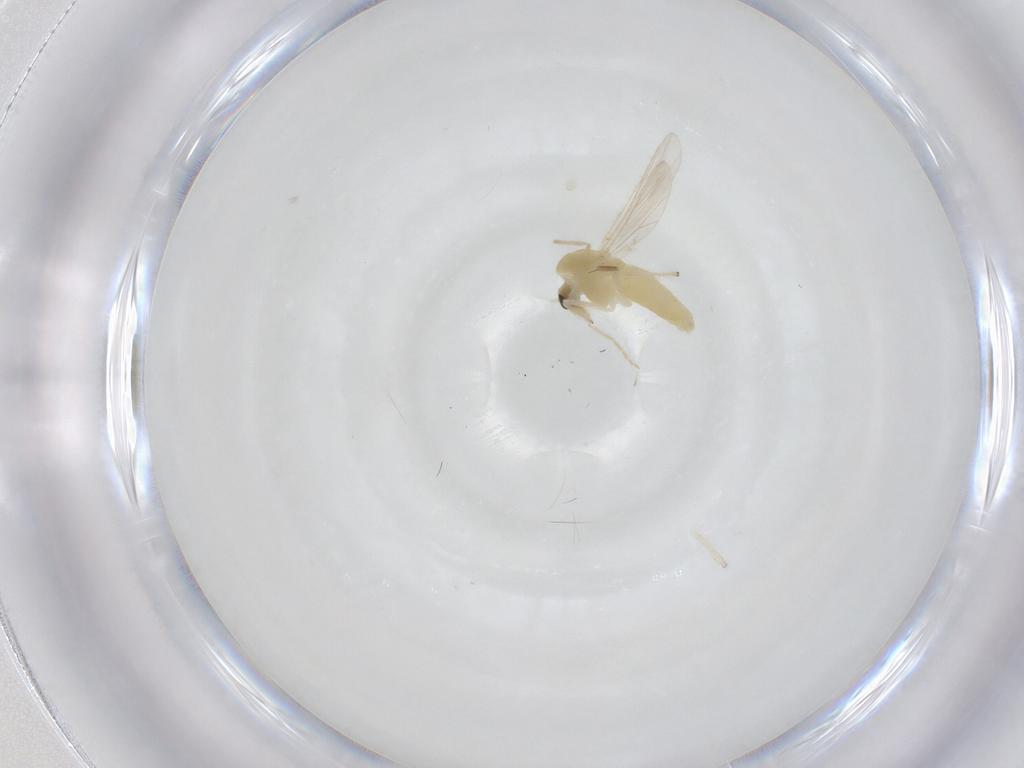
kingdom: Animalia
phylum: Arthropoda
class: Insecta
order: Diptera
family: Chironomidae
